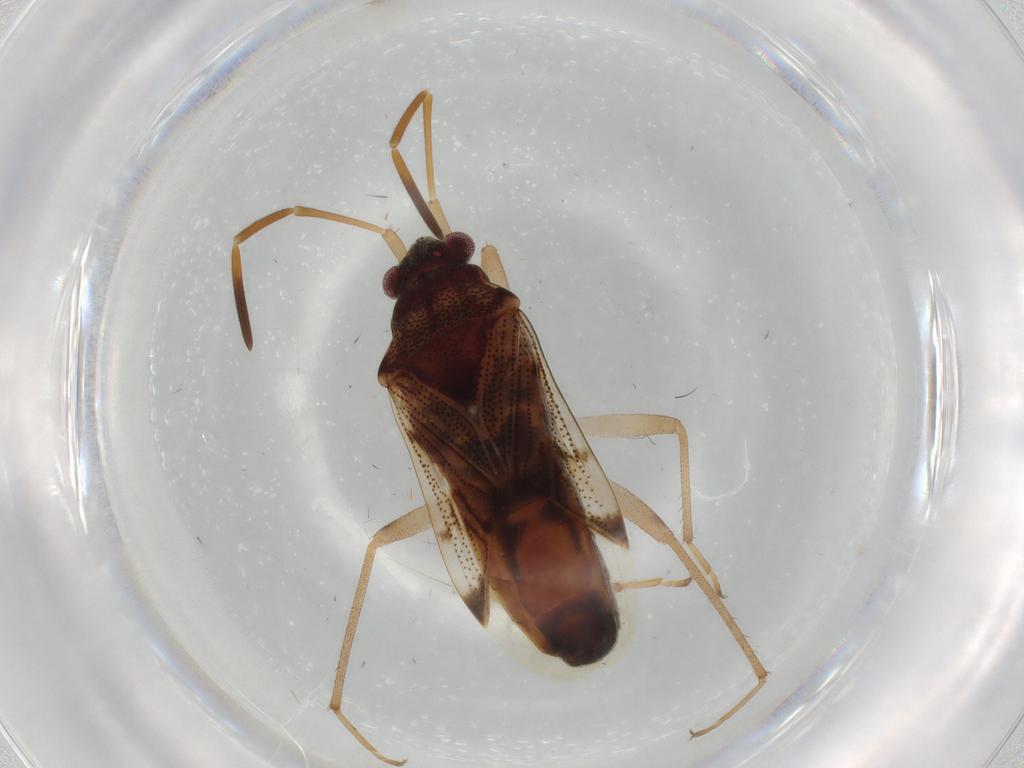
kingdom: Animalia
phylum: Arthropoda
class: Insecta
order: Hemiptera
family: Rhyparochromidae
